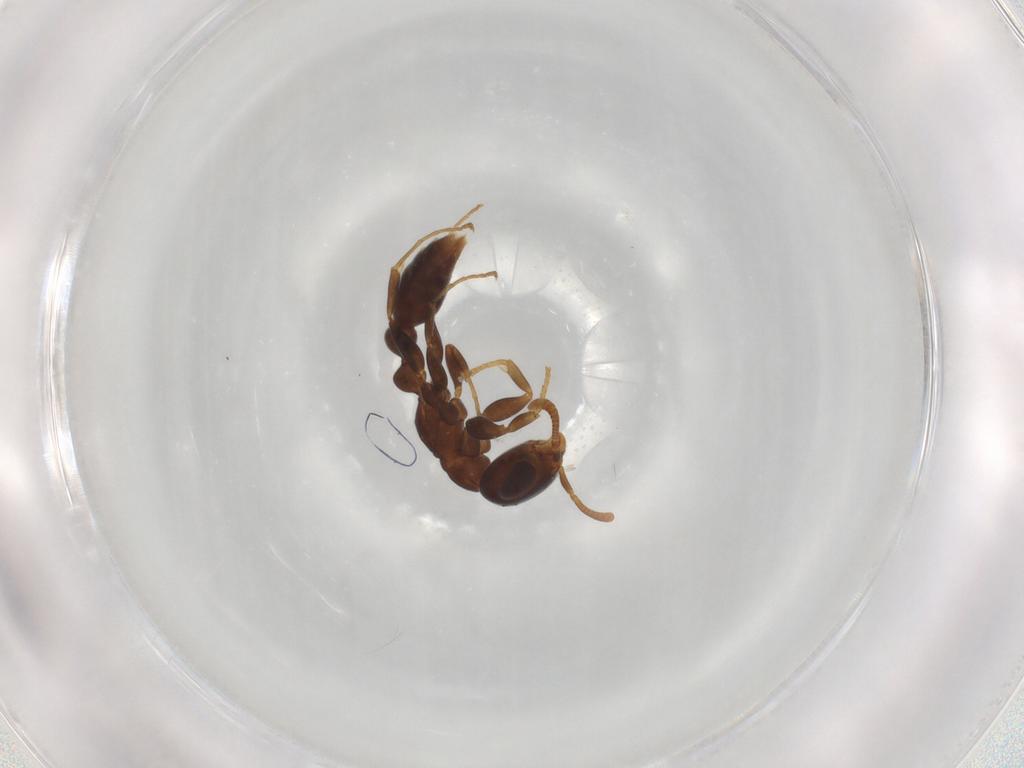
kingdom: Animalia
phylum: Arthropoda
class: Insecta
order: Hymenoptera
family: Formicidae
